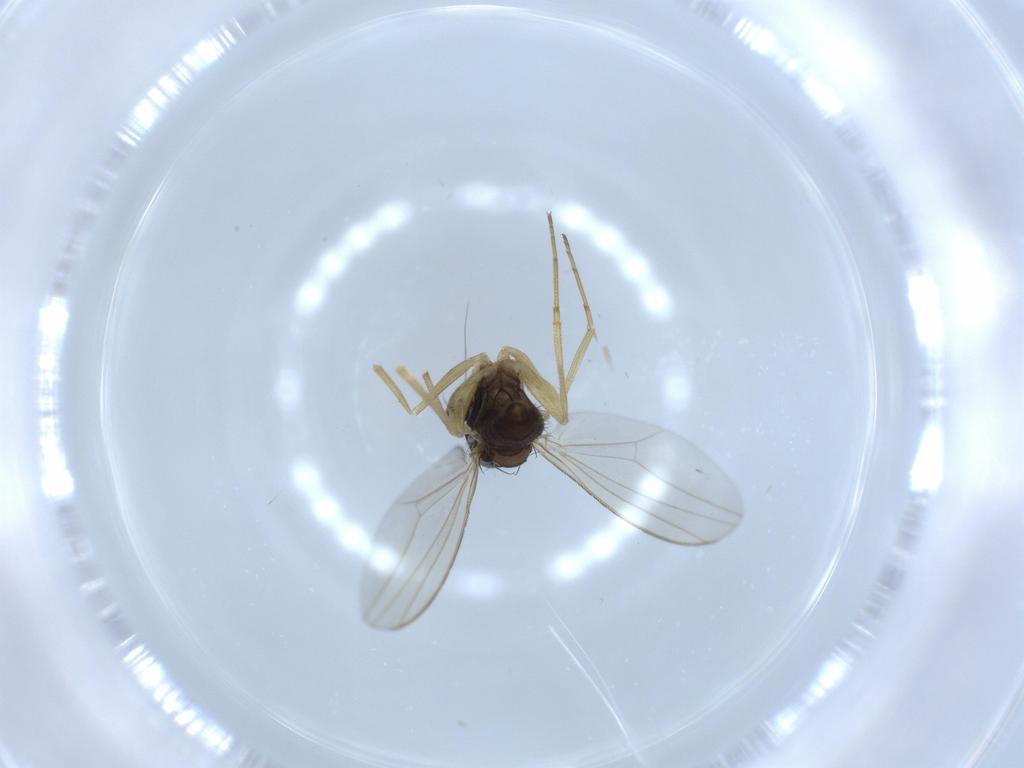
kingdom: Animalia
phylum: Arthropoda
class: Insecta
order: Diptera
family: Dolichopodidae
